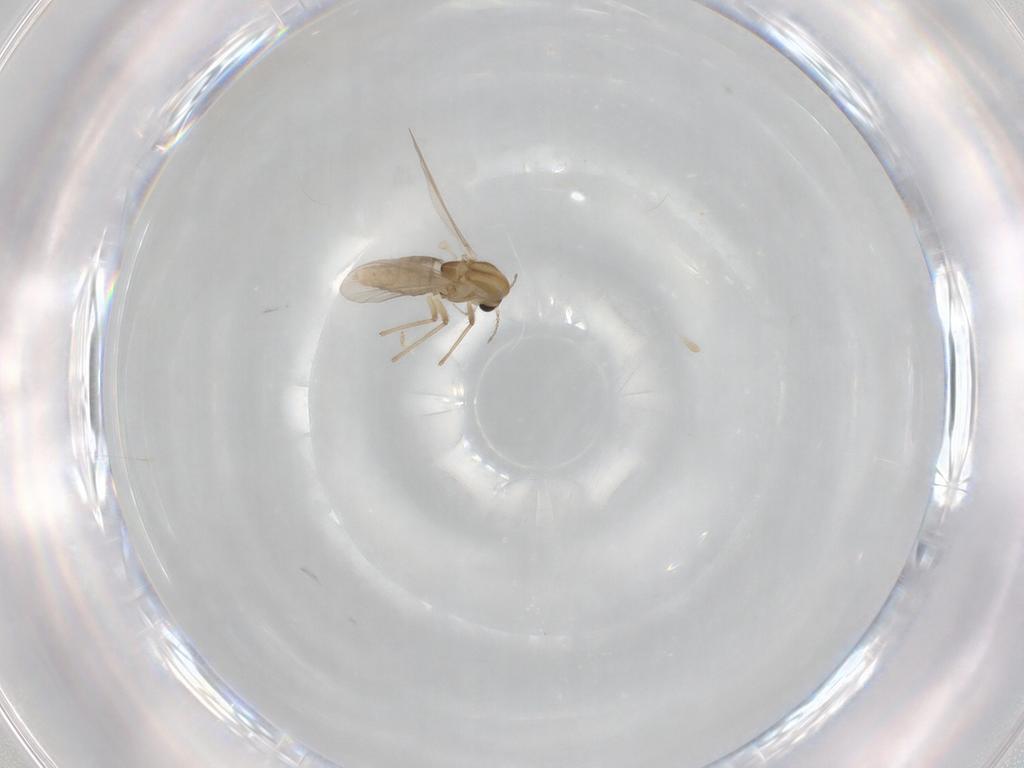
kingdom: Animalia
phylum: Arthropoda
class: Insecta
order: Diptera
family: Chironomidae
